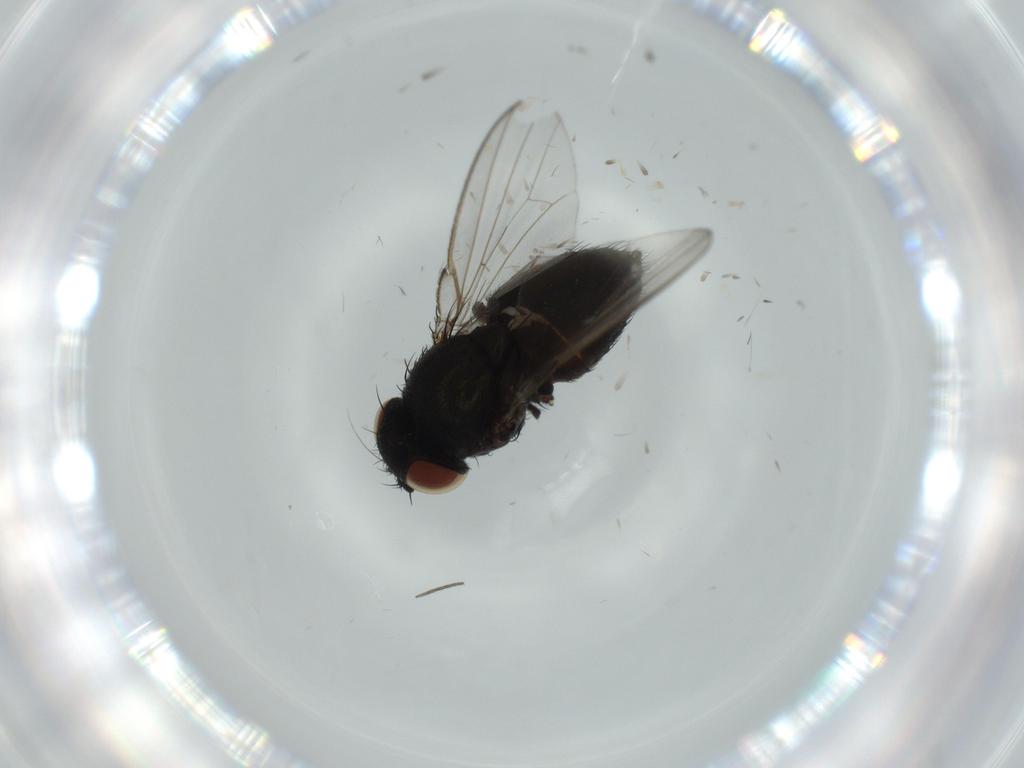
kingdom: Animalia
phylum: Arthropoda
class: Insecta
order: Diptera
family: Milichiidae
